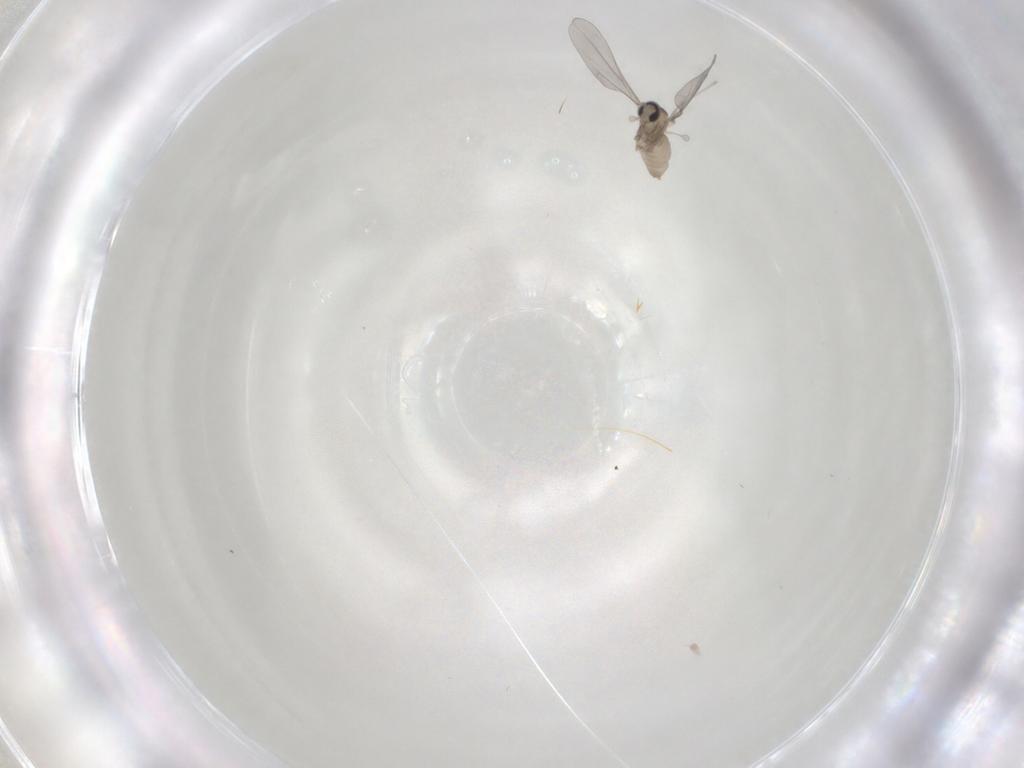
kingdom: Animalia
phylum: Arthropoda
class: Insecta
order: Diptera
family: Cecidomyiidae
